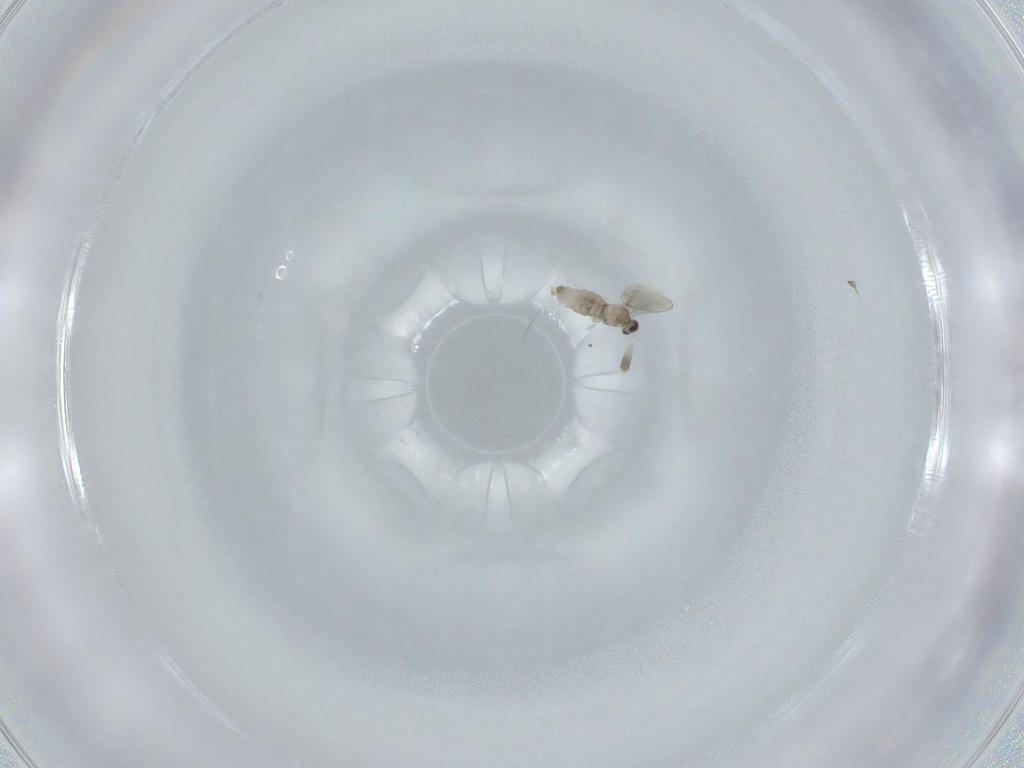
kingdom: Animalia
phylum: Arthropoda
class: Insecta
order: Diptera
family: Cecidomyiidae
